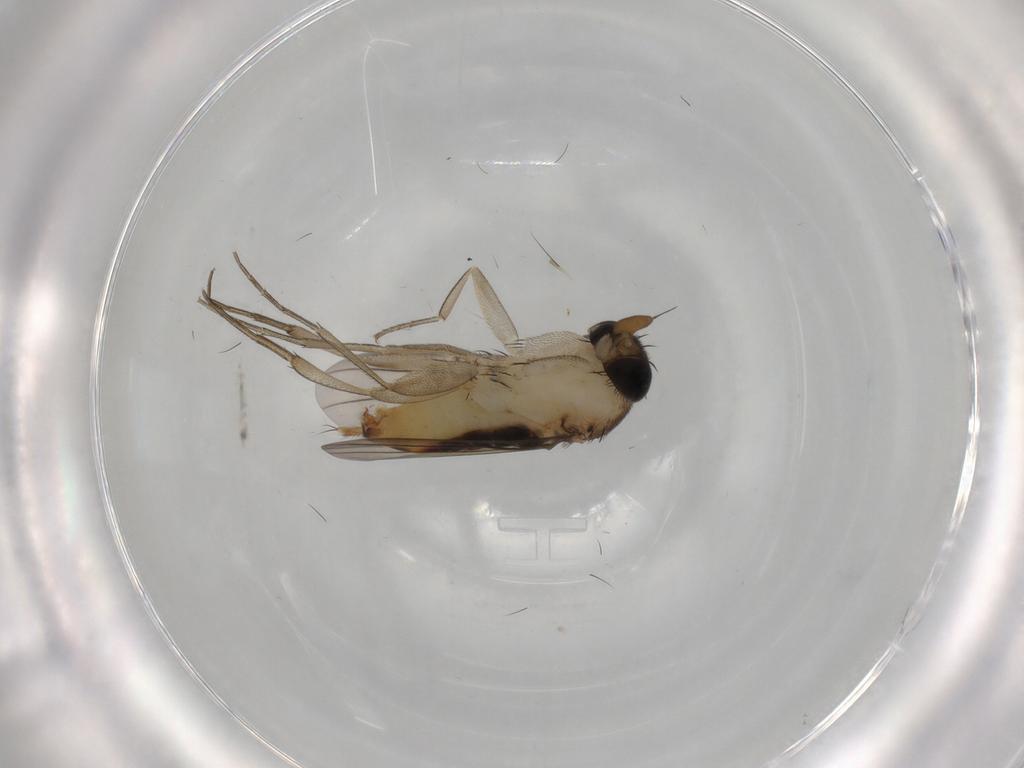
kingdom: Animalia
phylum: Arthropoda
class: Insecta
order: Diptera
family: Phoridae
